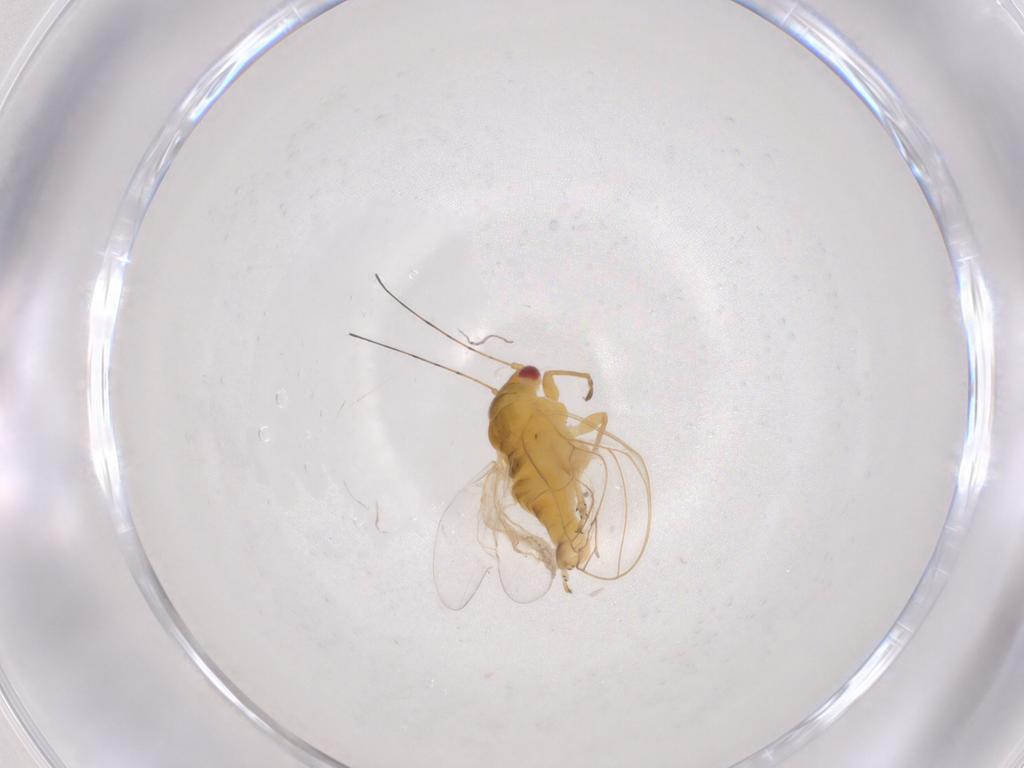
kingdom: Animalia
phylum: Arthropoda
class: Insecta
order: Hemiptera
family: Psyllidae
